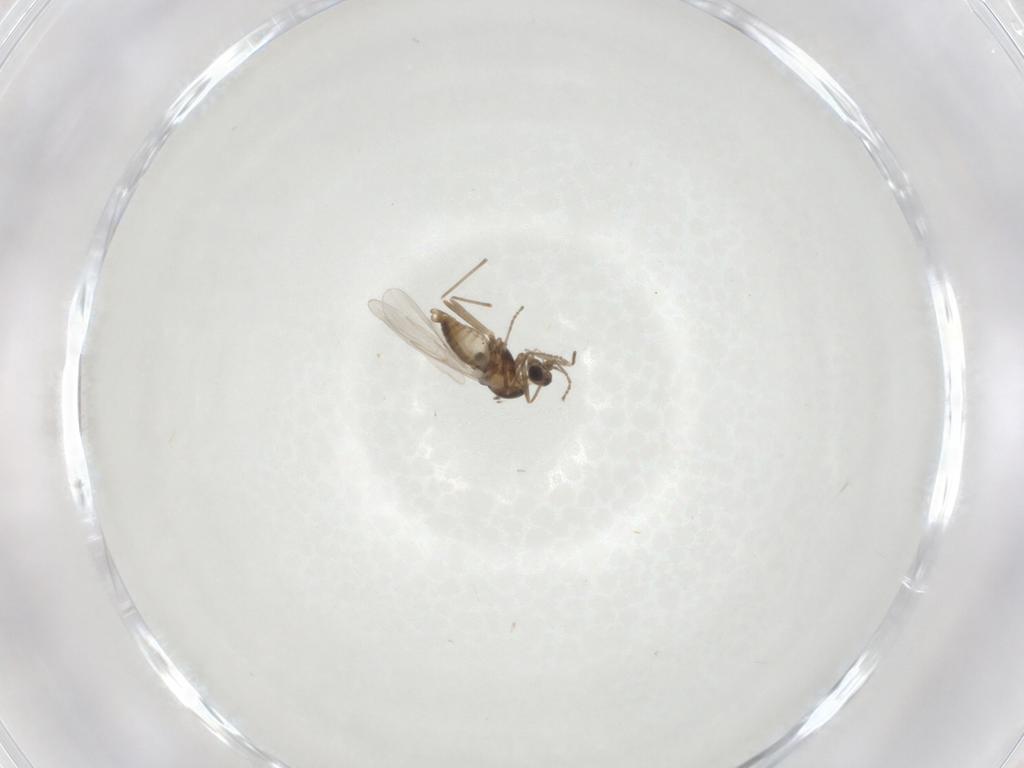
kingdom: Animalia
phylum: Arthropoda
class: Insecta
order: Diptera
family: Cecidomyiidae
